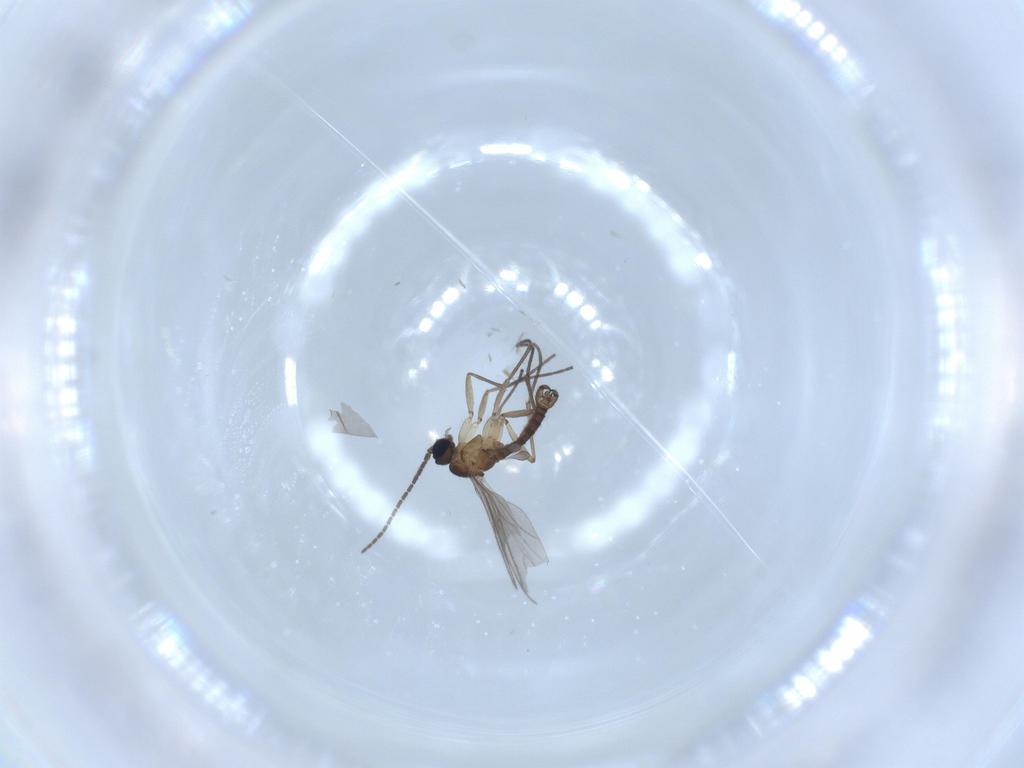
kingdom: Animalia
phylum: Arthropoda
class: Insecta
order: Diptera
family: Sciaridae
